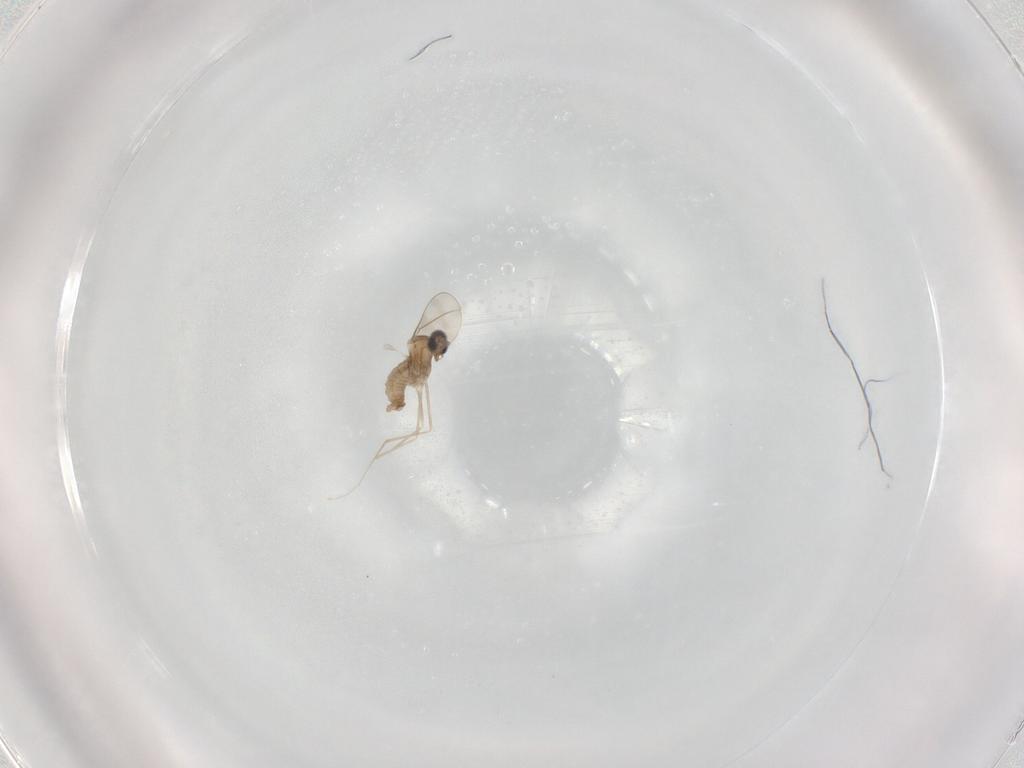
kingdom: Animalia
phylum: Arthropoda
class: Insecta
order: Diptera
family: Cecidomyiidae
